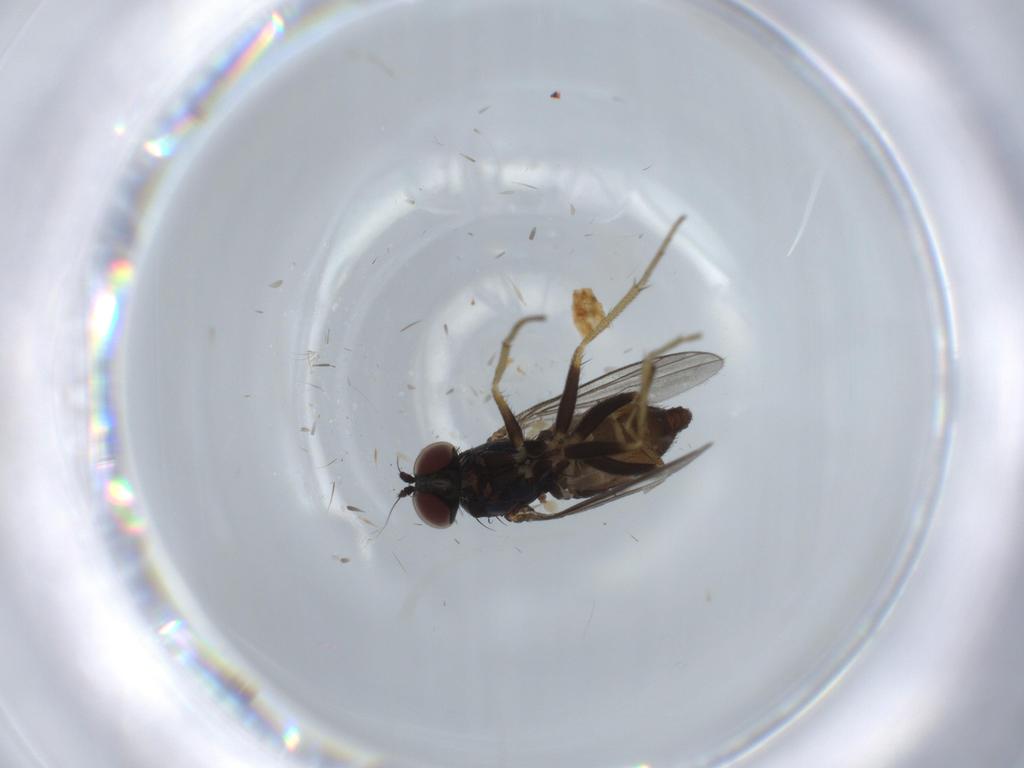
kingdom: Animalia
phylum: Arthropoda
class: Insecta
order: Diptera
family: Dolichopodidae
